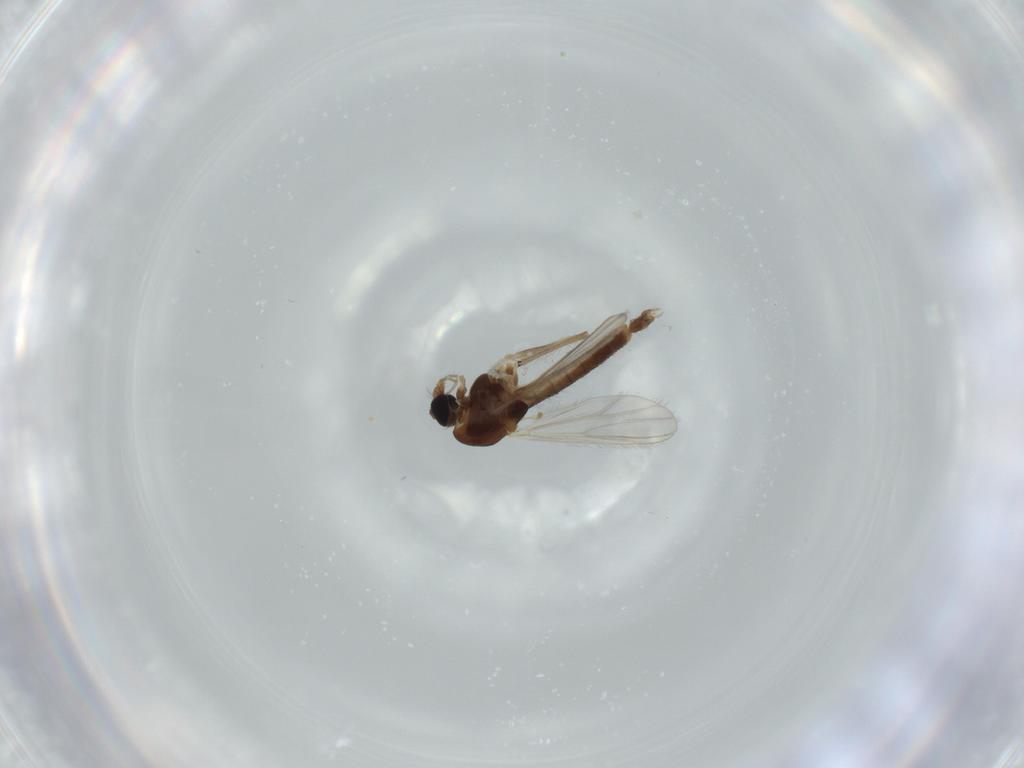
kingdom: Animalia
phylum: Arthropoda
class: Insecta
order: Diptera
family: Chironomidae
